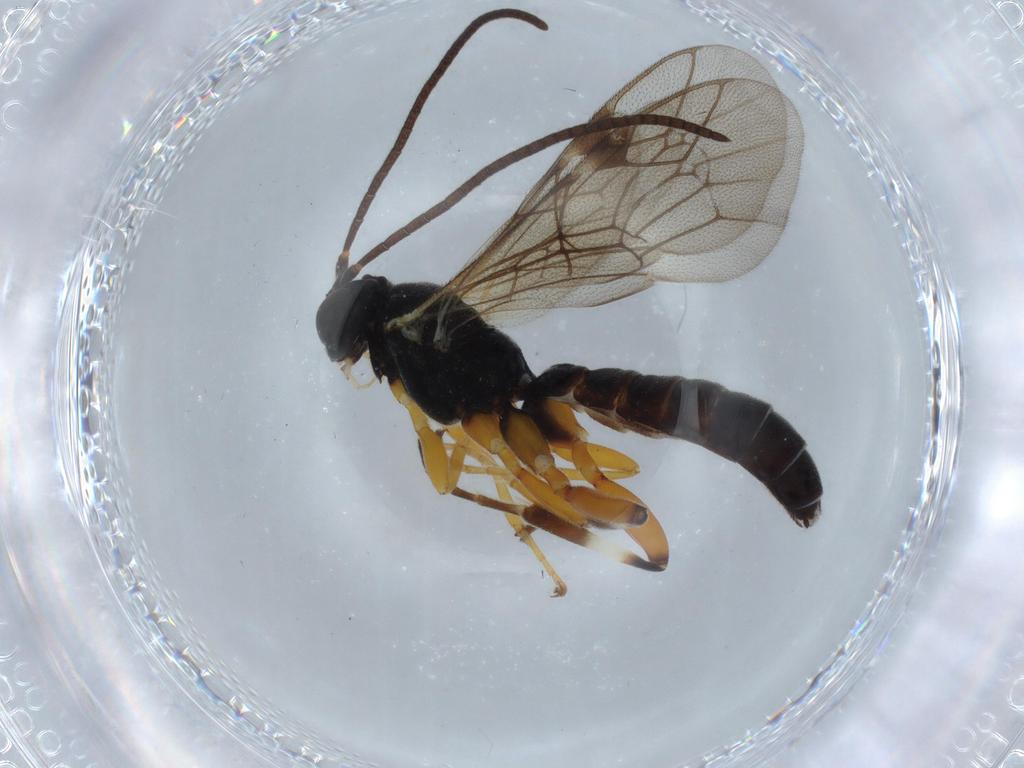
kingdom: Animalia
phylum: Arthropoda
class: Insecta
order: Hymenoptera
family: Ichneumonidae
